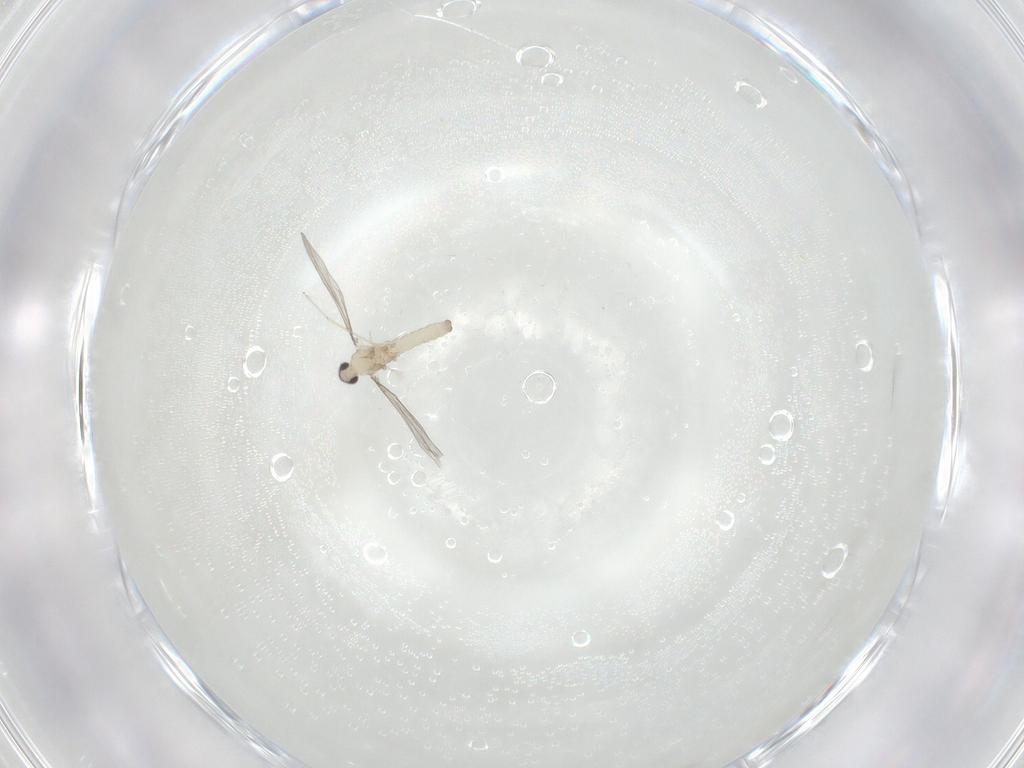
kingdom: Animalia
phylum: Arthropoda
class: Insecta
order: Diptera
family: Cecidomyiidae
